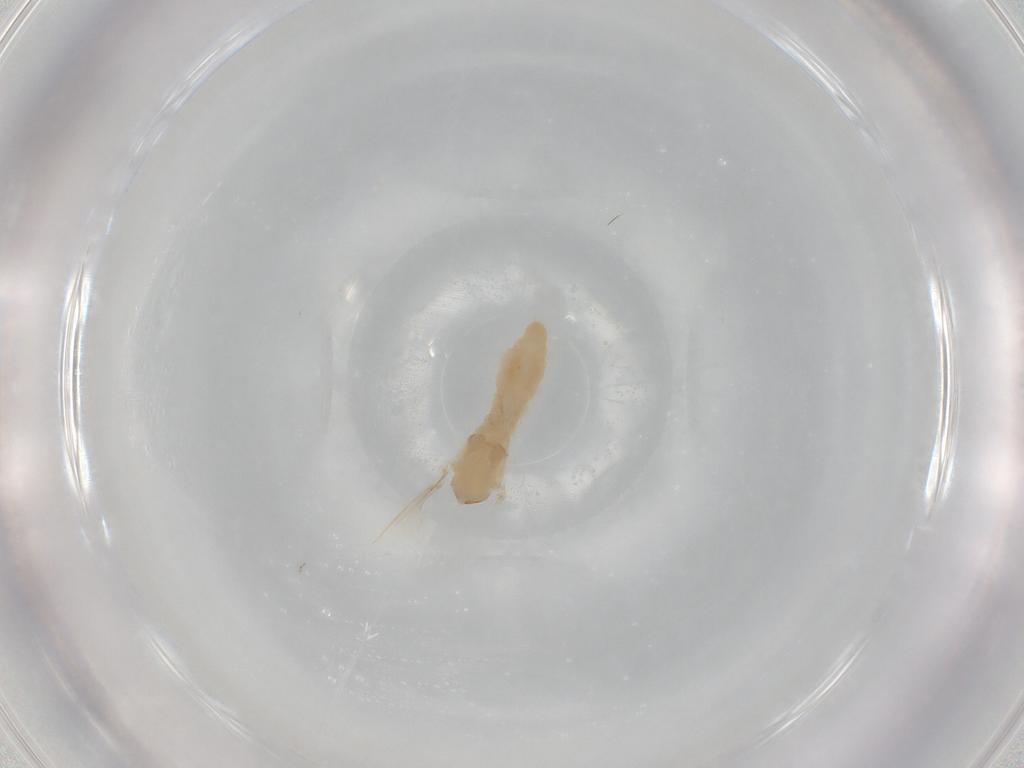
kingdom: Animalia
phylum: Arthropoda
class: Insecta
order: Diptera
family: Cecidomyiidae
